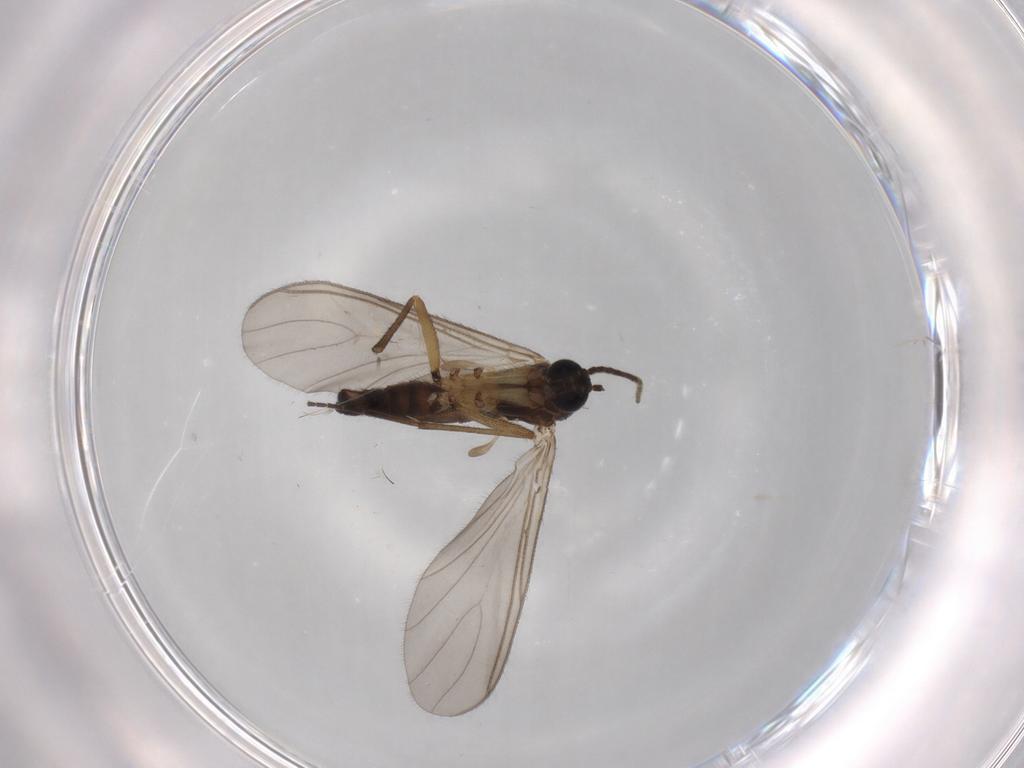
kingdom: Animalia
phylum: Arthropoda
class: Insecta
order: Diptera
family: Sciaridae
